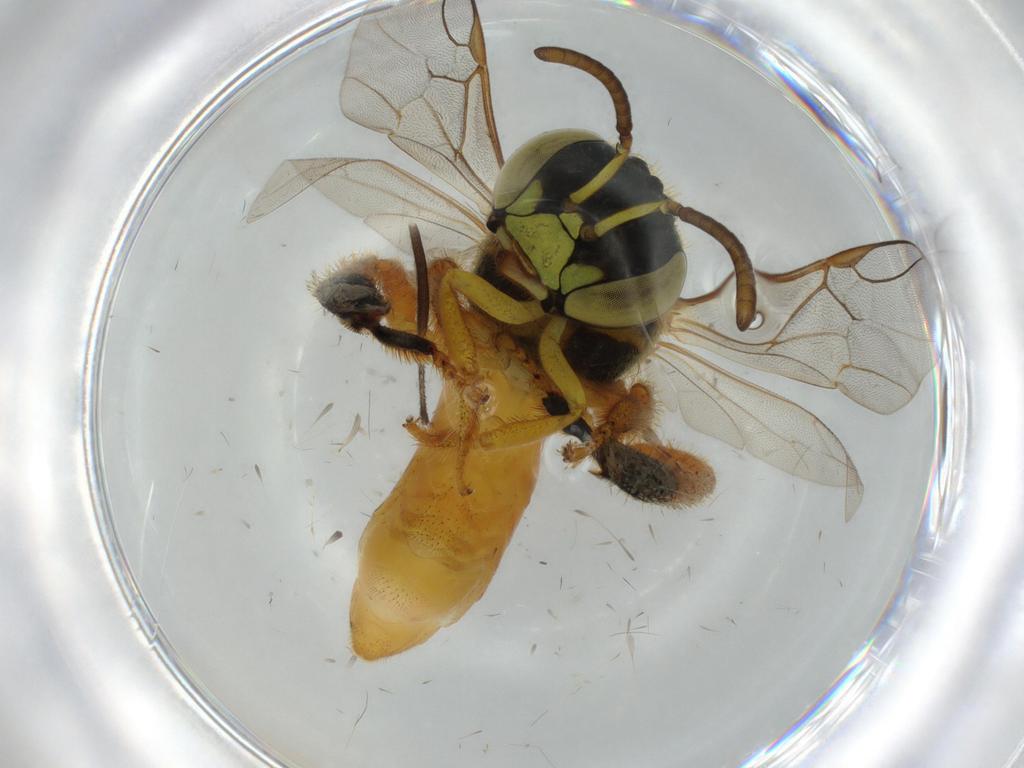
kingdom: Animalia
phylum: Arthropoda
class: Insecta
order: Hymenoptera
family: Apidae
